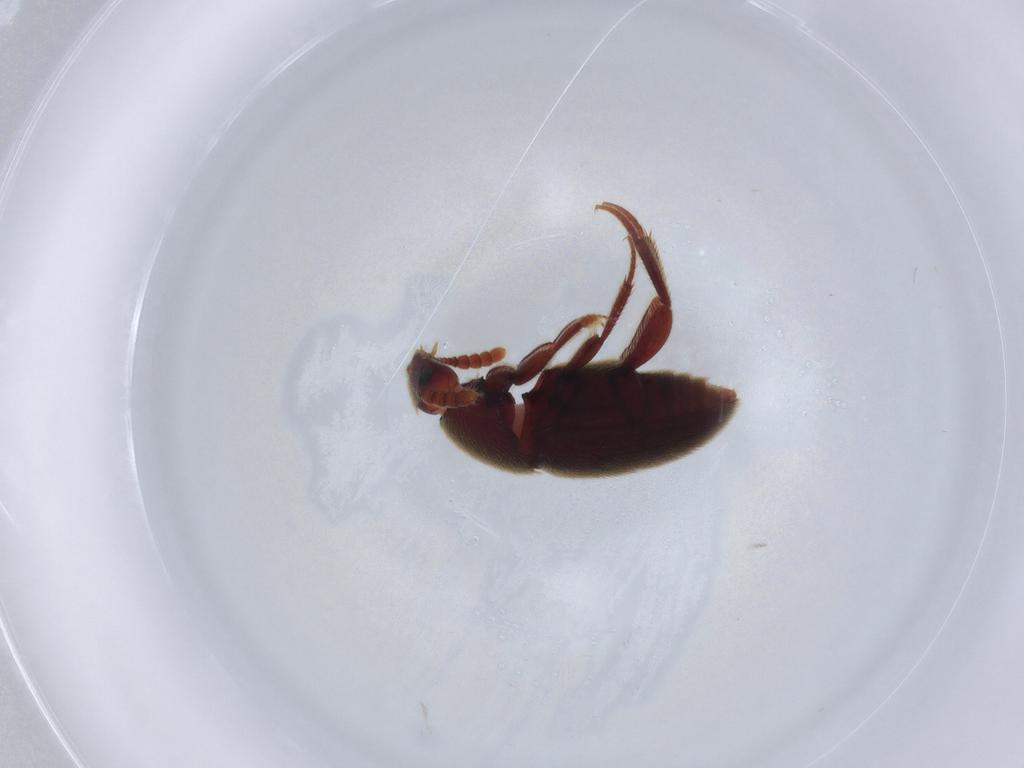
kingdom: Animalia
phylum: Arthropoda
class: Insecta
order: Coleoptera
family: Leiodidae
